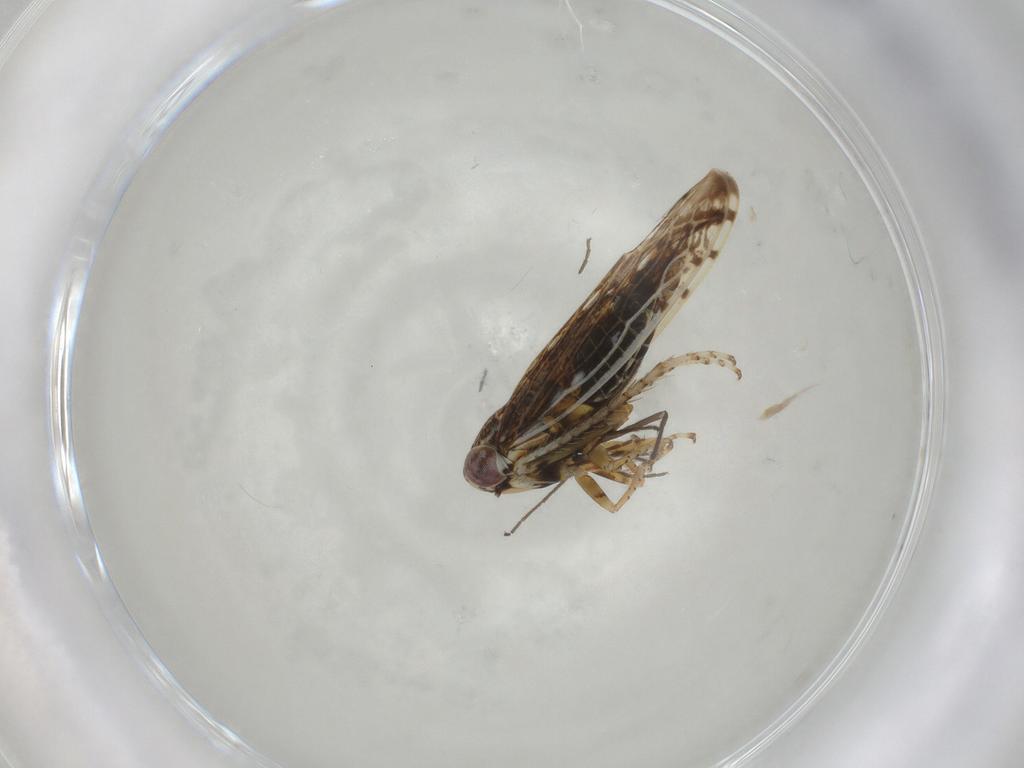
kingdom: Animalia
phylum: Arthropoda
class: Insecta
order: Hemiptera
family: Cicadellidae
